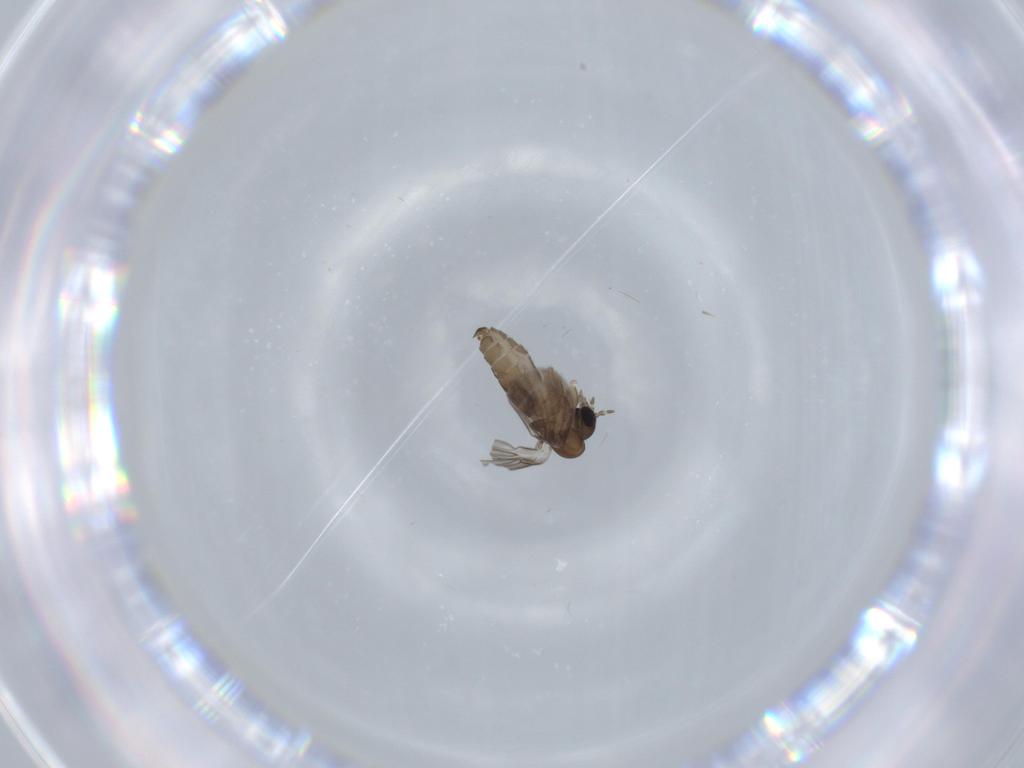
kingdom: Animalia
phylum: Arthropoda
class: Insecta
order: Diptera
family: Psychodidae
